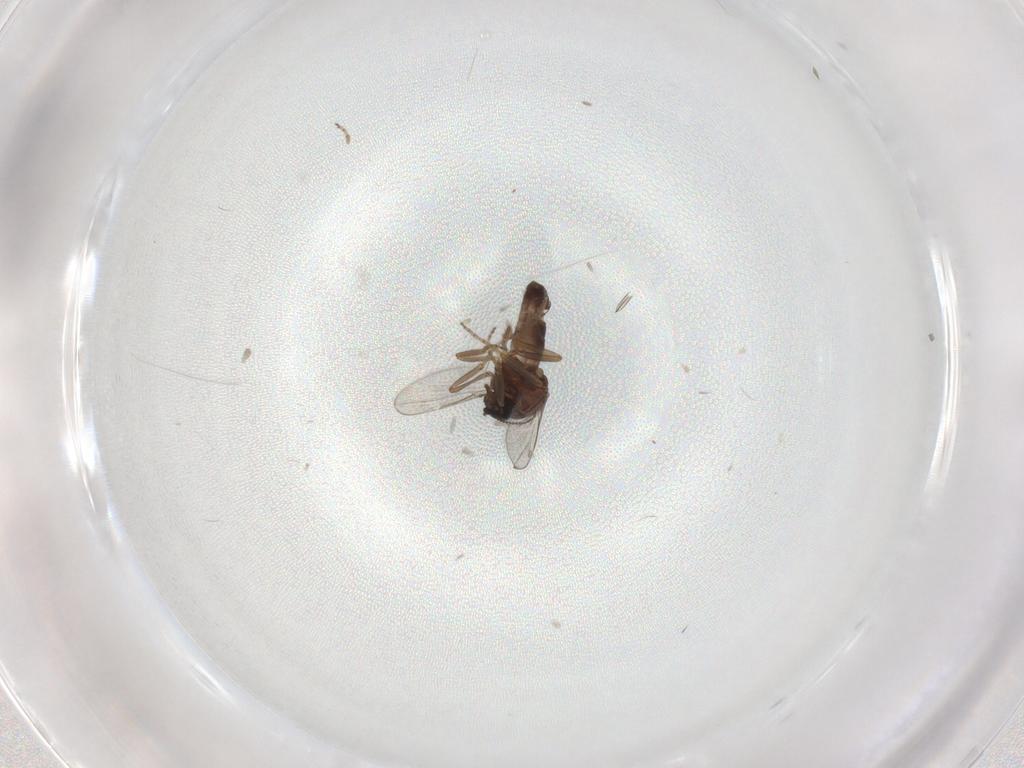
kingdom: Animalia
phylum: Arthropoda
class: Insecta
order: Diptera
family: Ceratopogonidae
